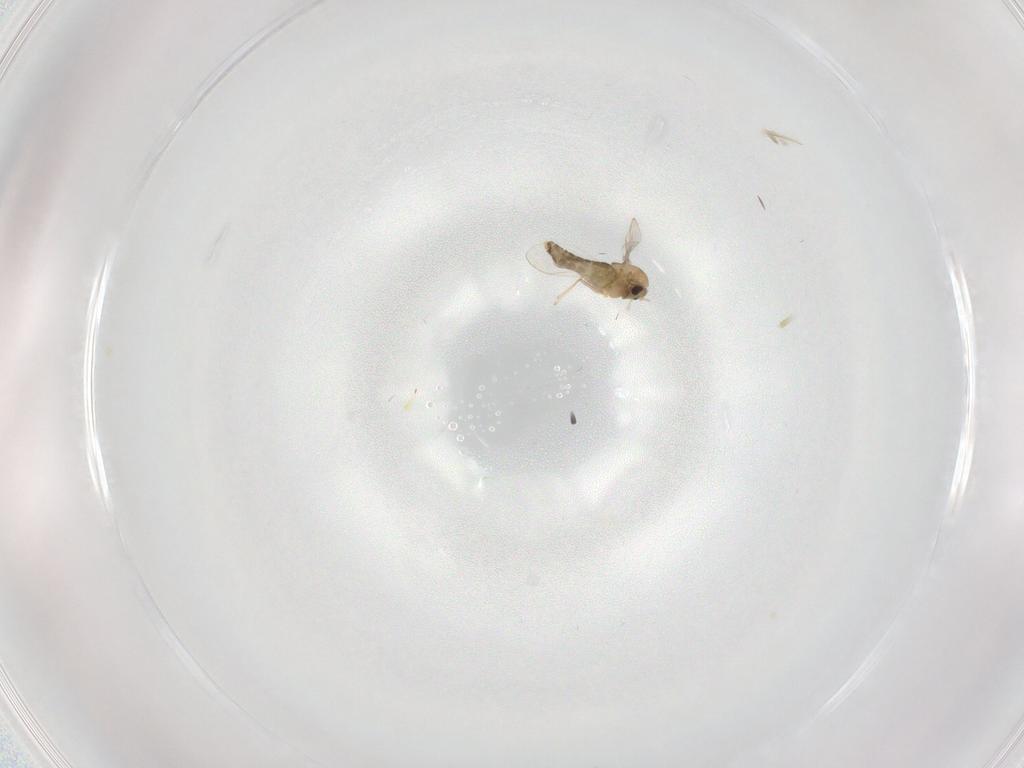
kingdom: Animalia
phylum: Arthropoda
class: Insecta
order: Diptera
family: Chironomidae
